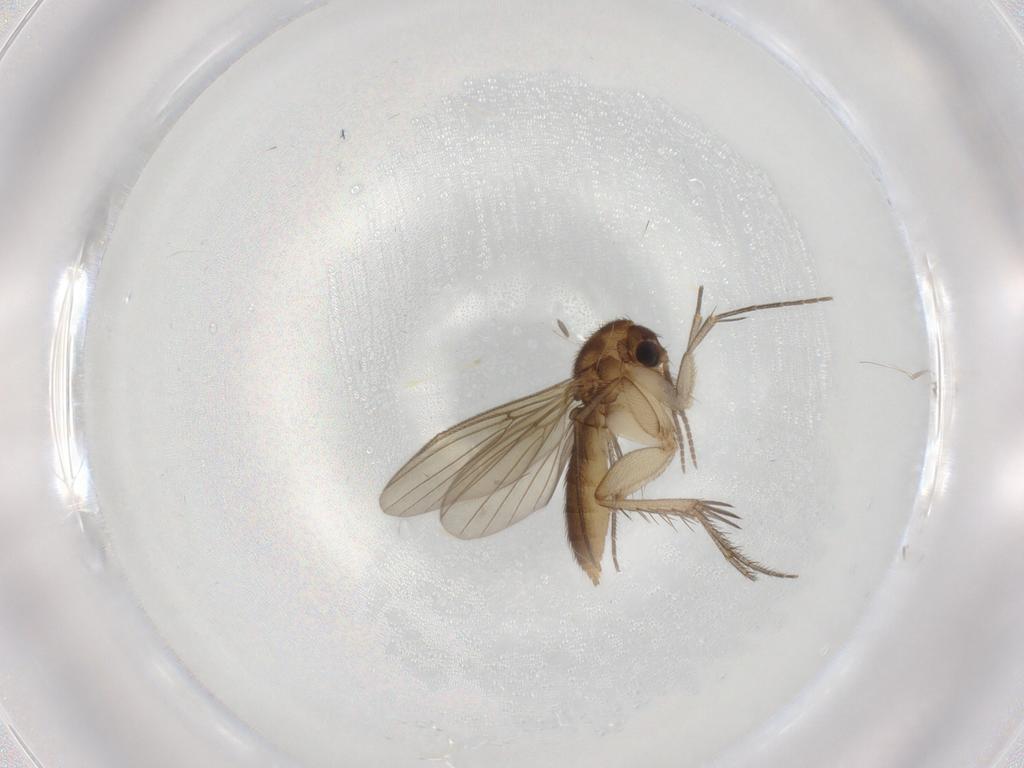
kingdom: Animalia
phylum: Arthropoda
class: Insecta
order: Diptera
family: Mycetophilidae
